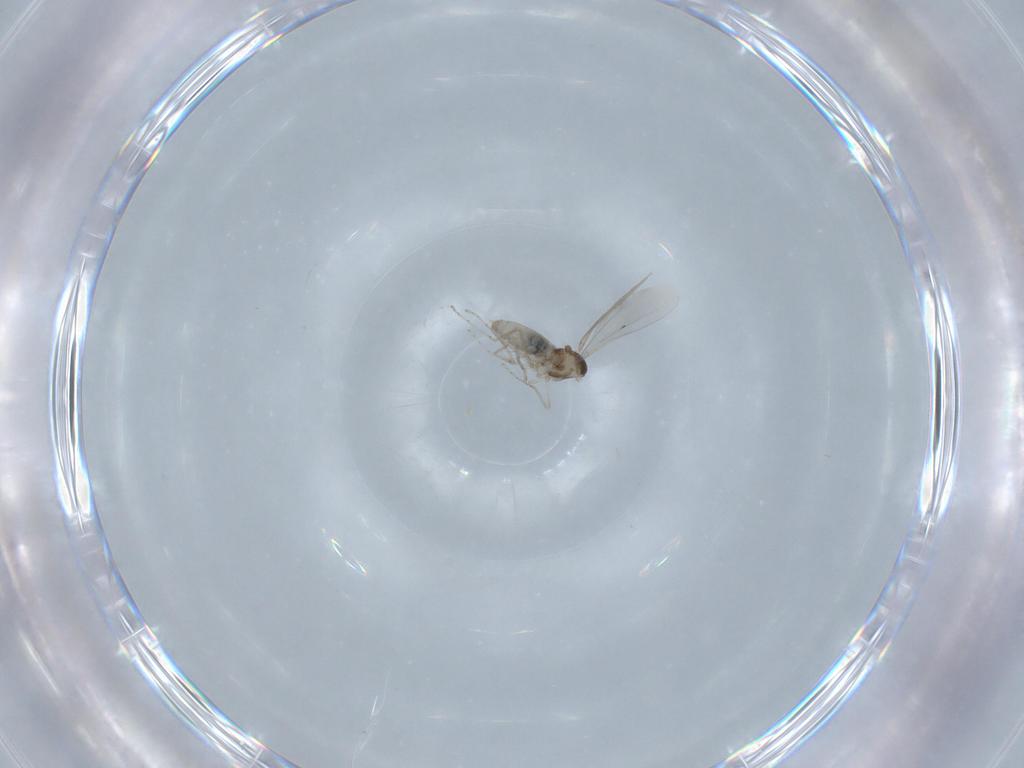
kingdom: Animalia
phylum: Arthropoda
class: Insecta
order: Diptera
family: Cecidomyiidae
